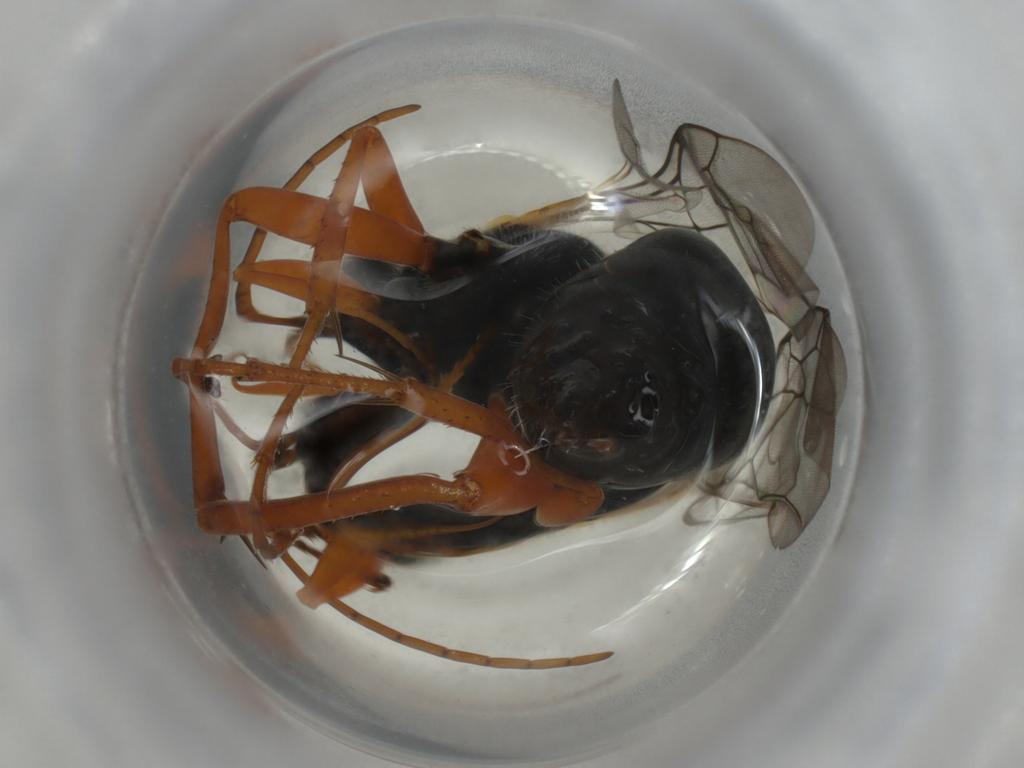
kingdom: Animalia
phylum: Arthropoda
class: Insecta
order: Hymenoptera
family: Pompilidae
